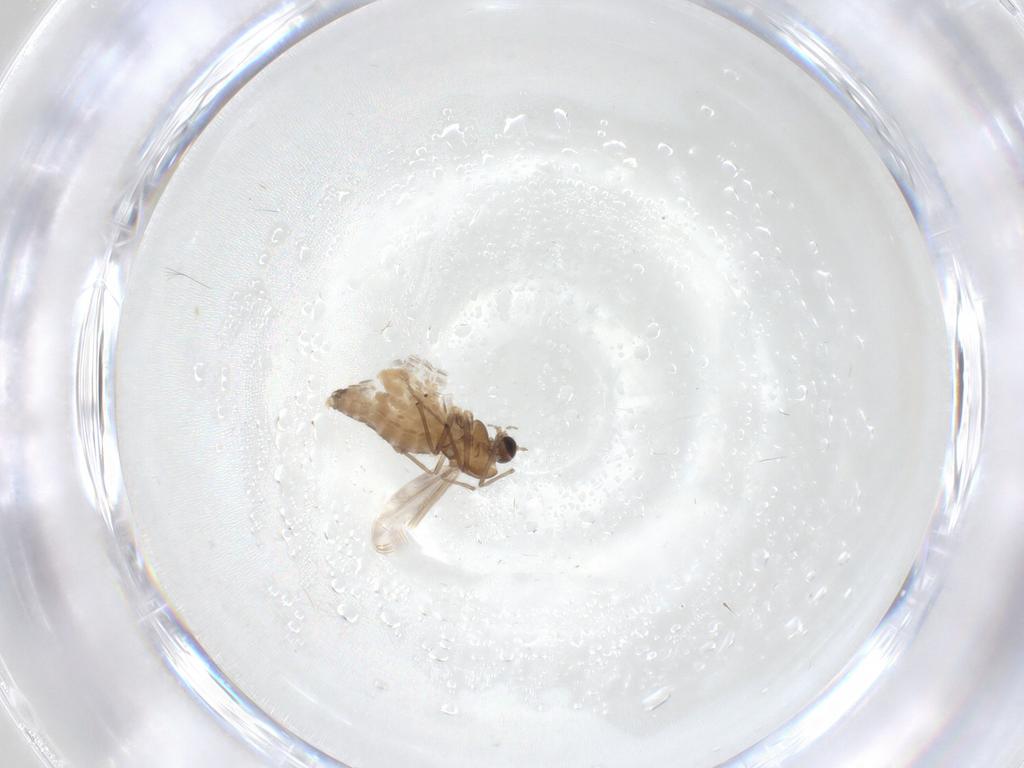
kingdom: Animalia
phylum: Arthropoda
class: Insecta
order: Diptera
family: Chironomidae
